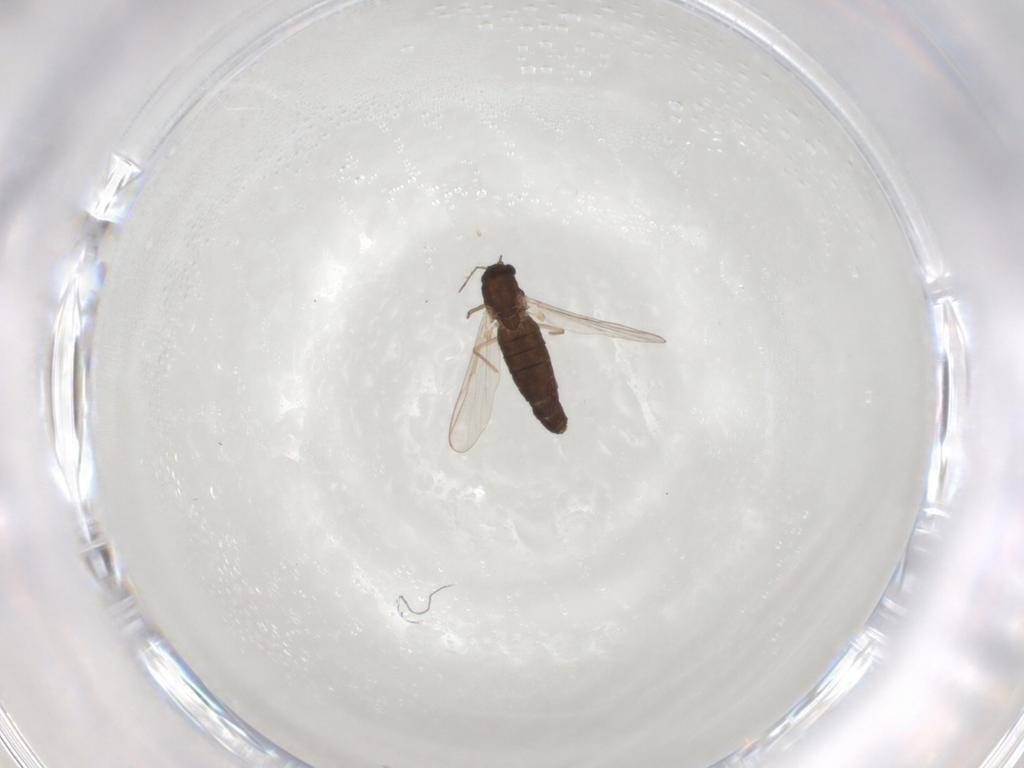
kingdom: Animalia
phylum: Arthropoda
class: Insecta
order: Diptera
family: Chironomidae
